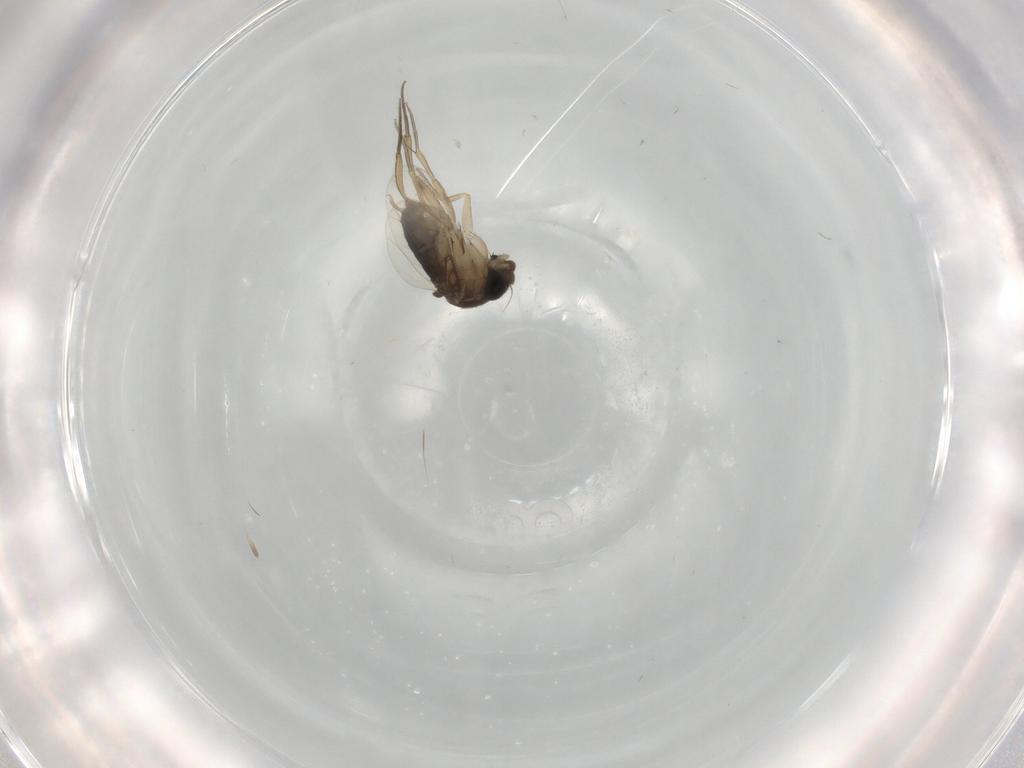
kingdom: Animalia
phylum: Arthropoda
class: Insecta
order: Diptera
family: Phoridae
